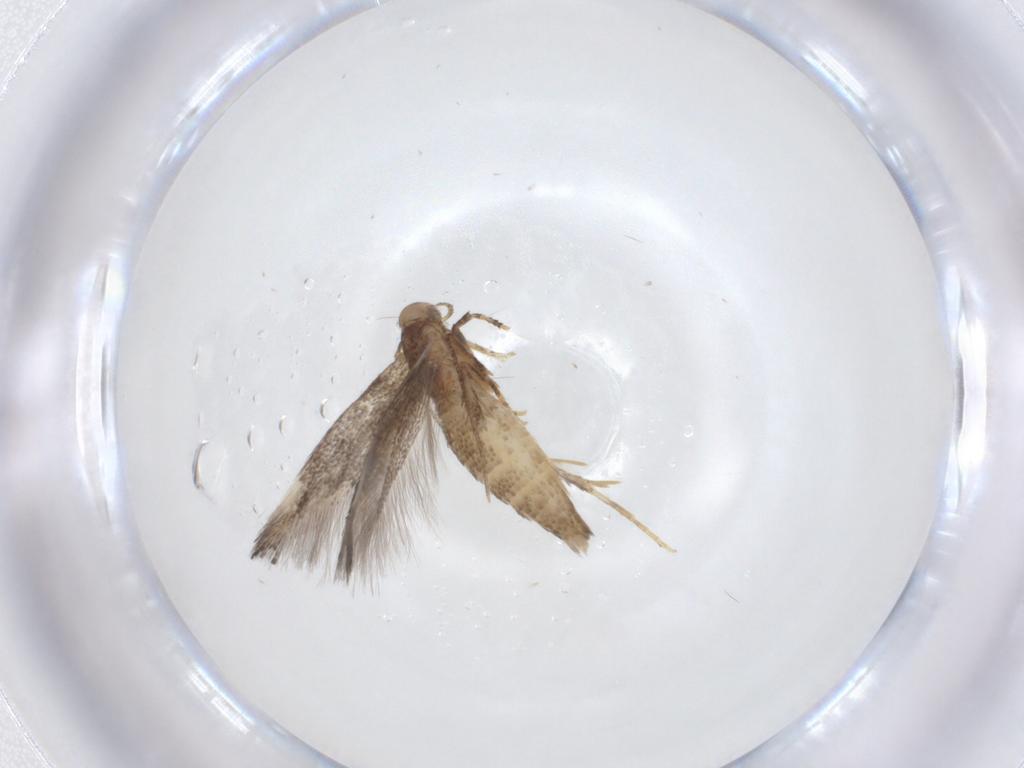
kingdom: Animalia
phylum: Arthropoda
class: Insecta
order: Lepidoptera
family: Elachistidae
